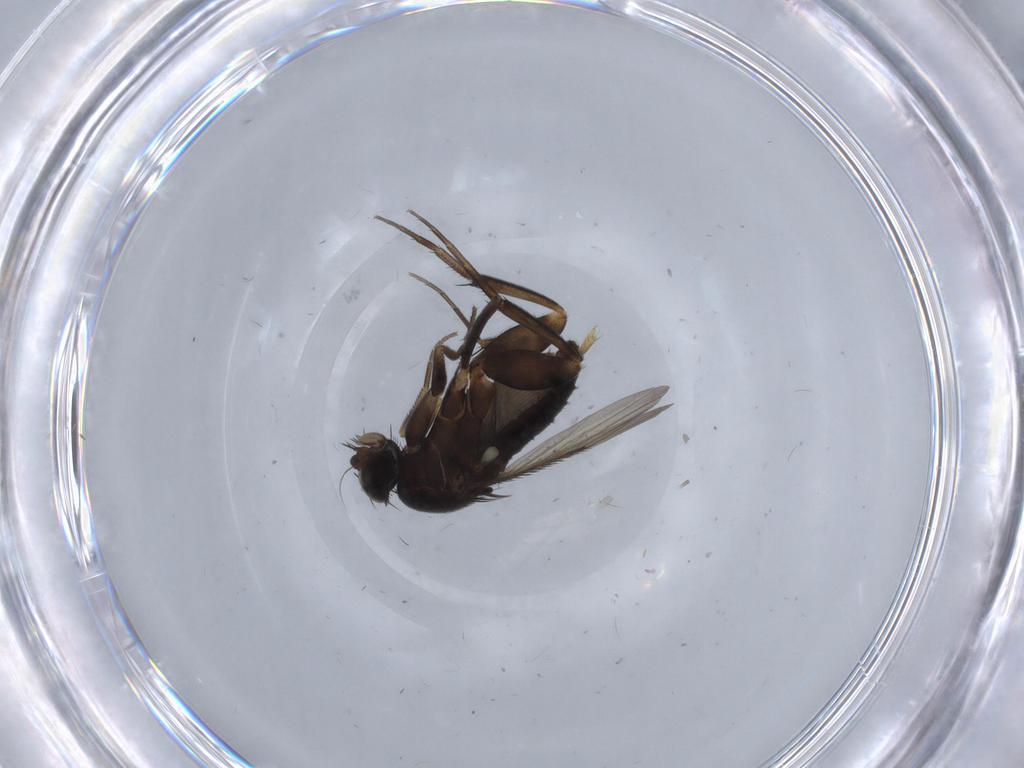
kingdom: Animalia
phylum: Arthropoda
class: Insecta
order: Diptera
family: Phoridae
